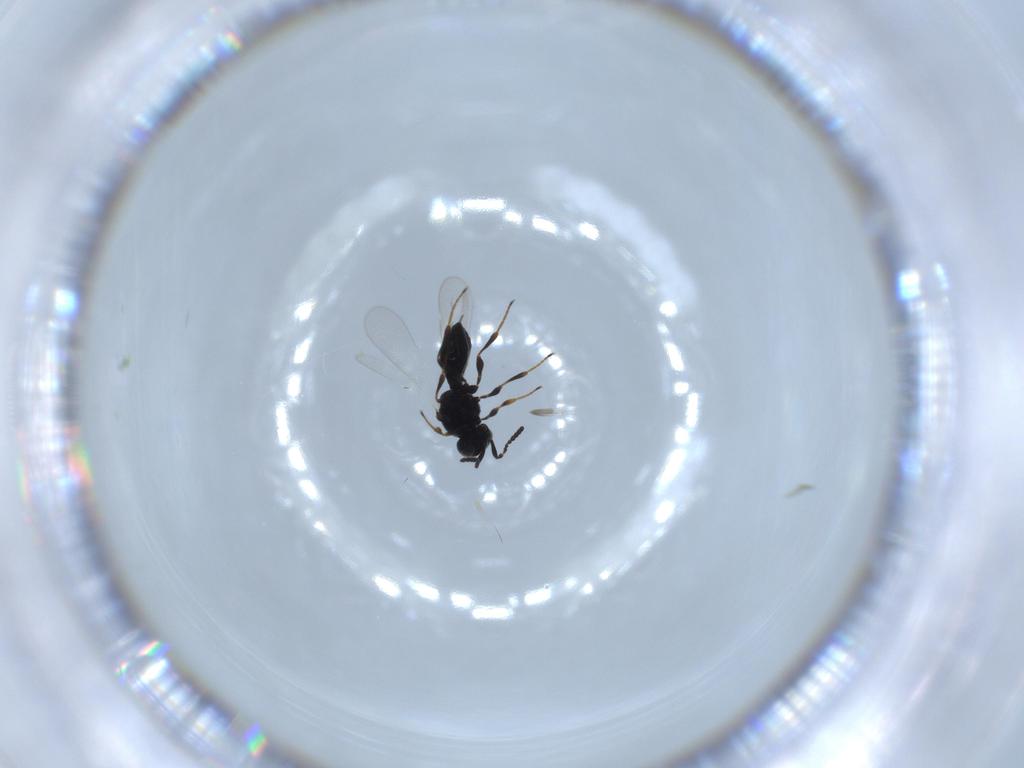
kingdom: Animalia
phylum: Arthropoda
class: Insecta
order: Hymenoptera
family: Platygastridae
